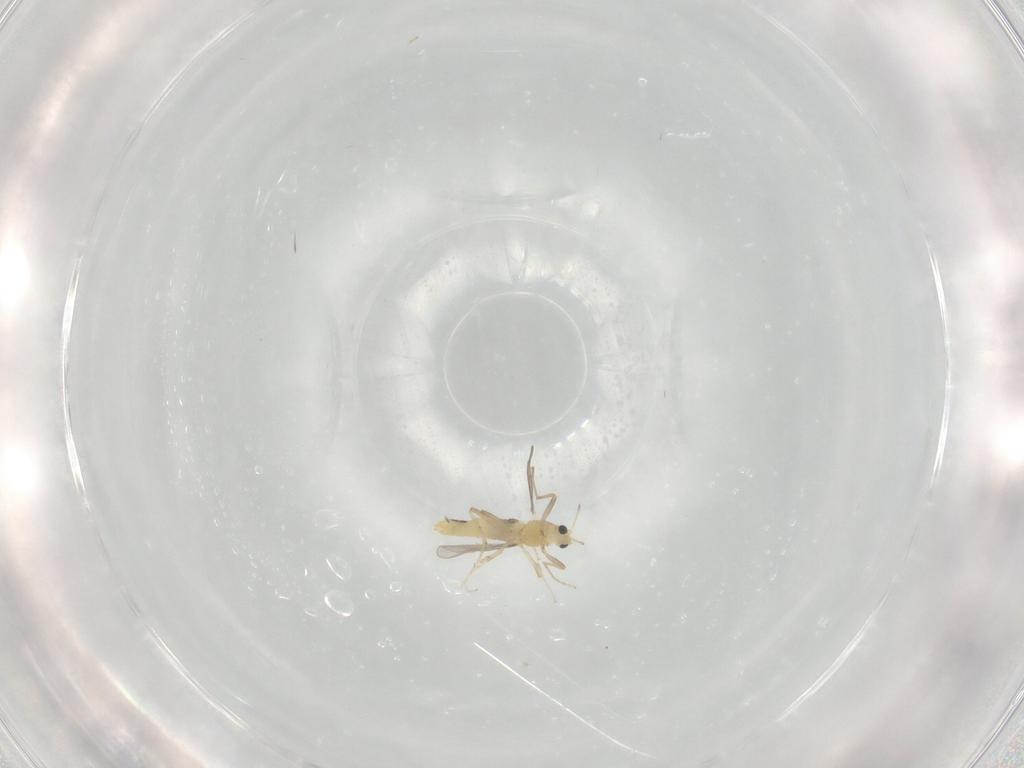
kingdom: Animalia
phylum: Arthropoda
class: Insecta
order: Diptera
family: Chironomidae
